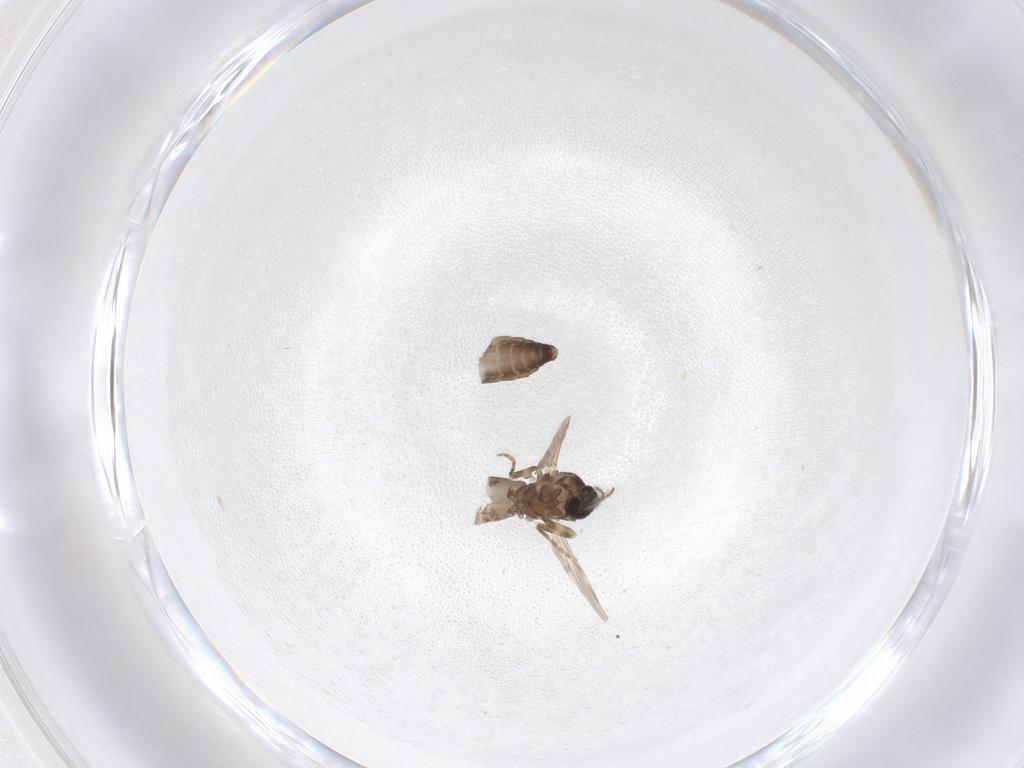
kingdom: Animalia
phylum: Arthropoda
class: Insecta
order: Diptera
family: Ceratopogonidae
